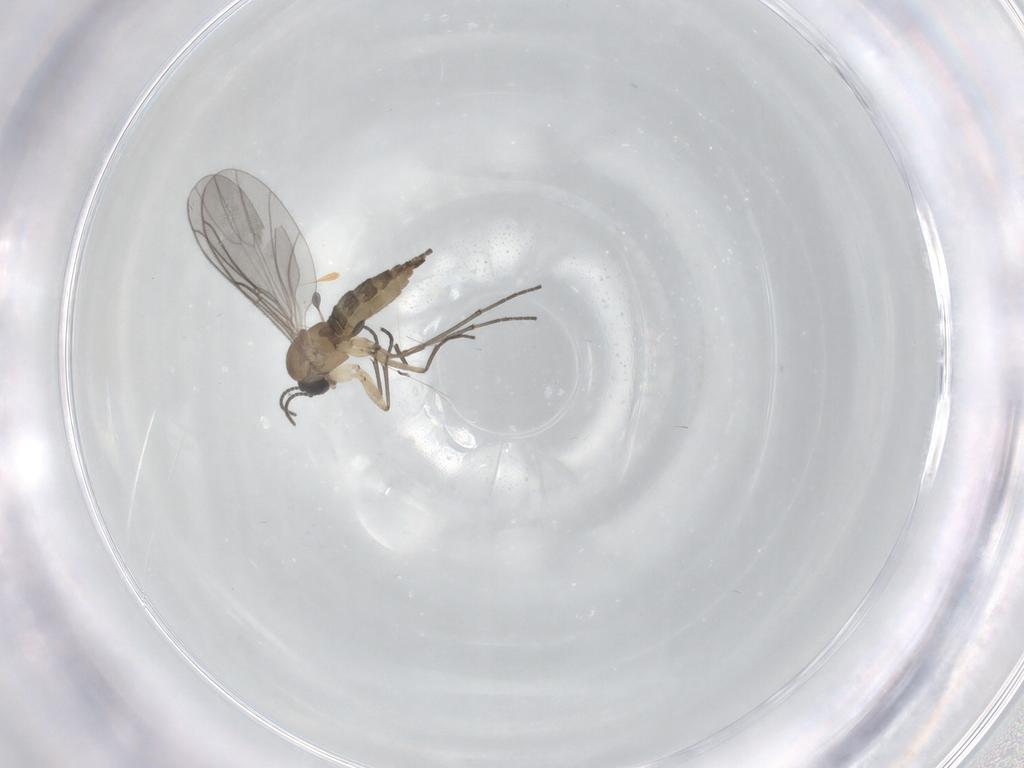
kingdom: Animalia
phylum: Arthropoda
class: Insecta
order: Diptera
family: Sciaridae
